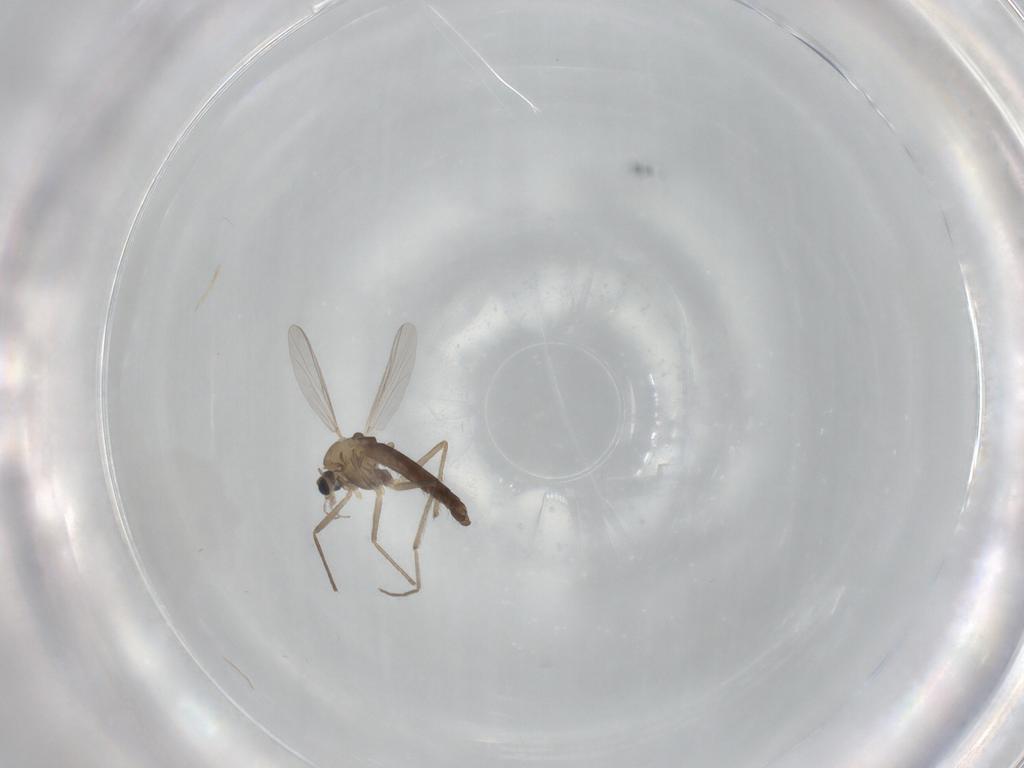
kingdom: Animalia
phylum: Arthropoda
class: Insecta
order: Diptera
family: Chironomidae
